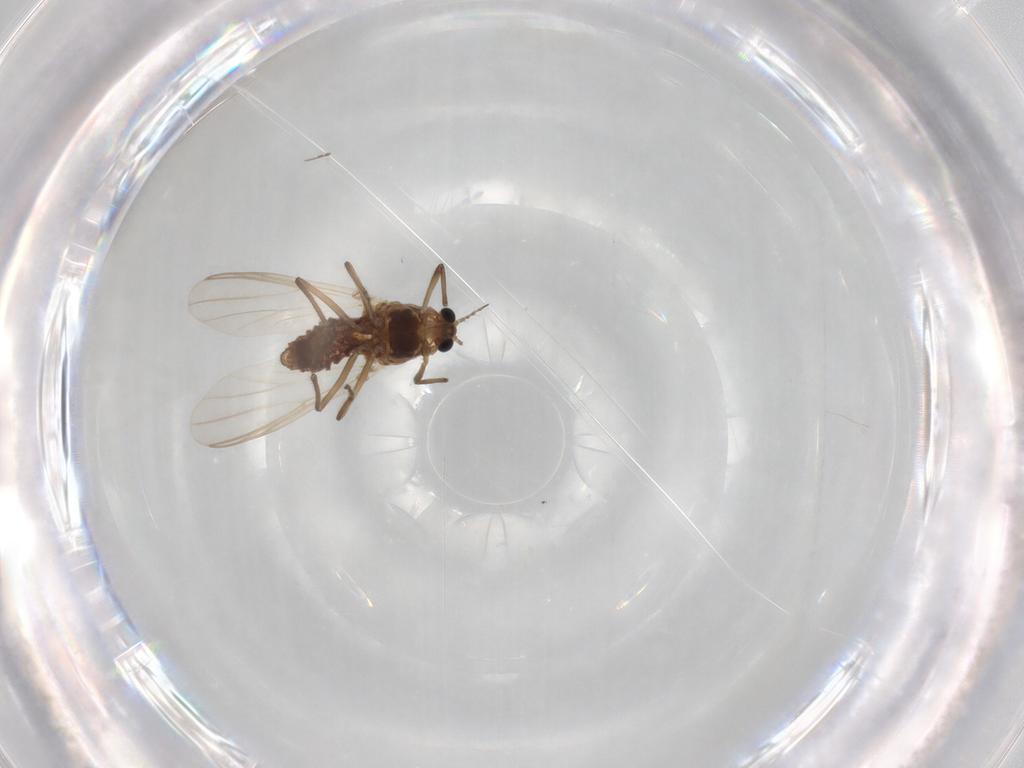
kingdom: Animalia
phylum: Arthropoda
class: Insecta
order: Diptera
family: Chironomidae
